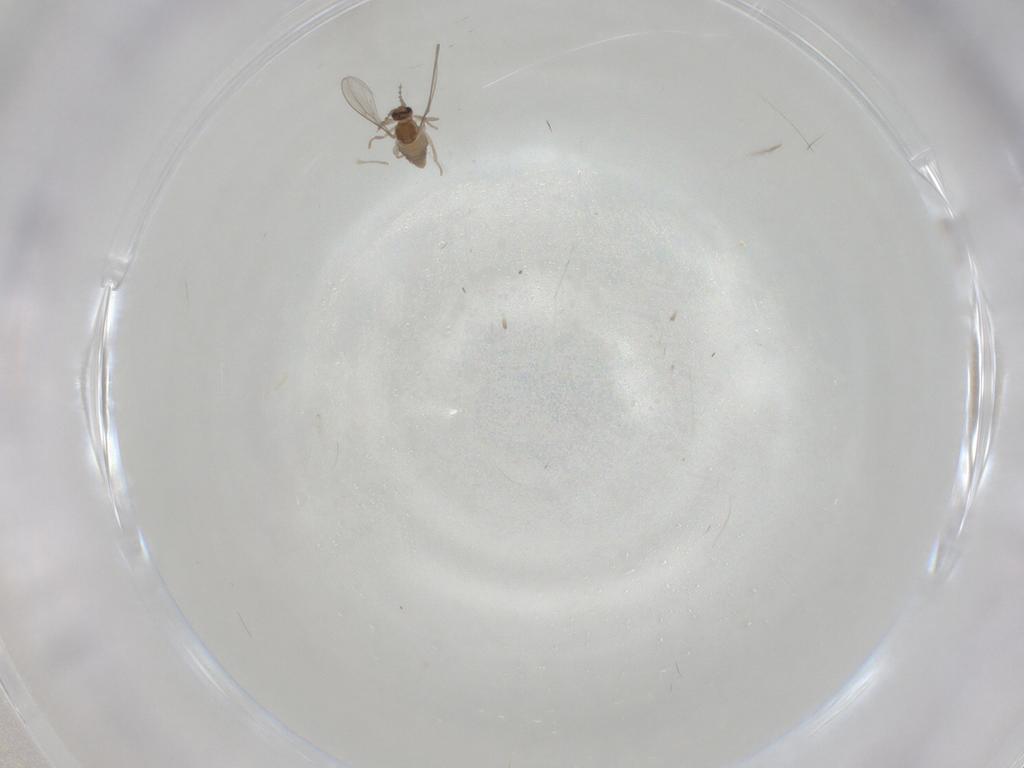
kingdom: Animalia
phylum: Arthropoda
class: Insecta
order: Diptera
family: Cecidomyiidae
